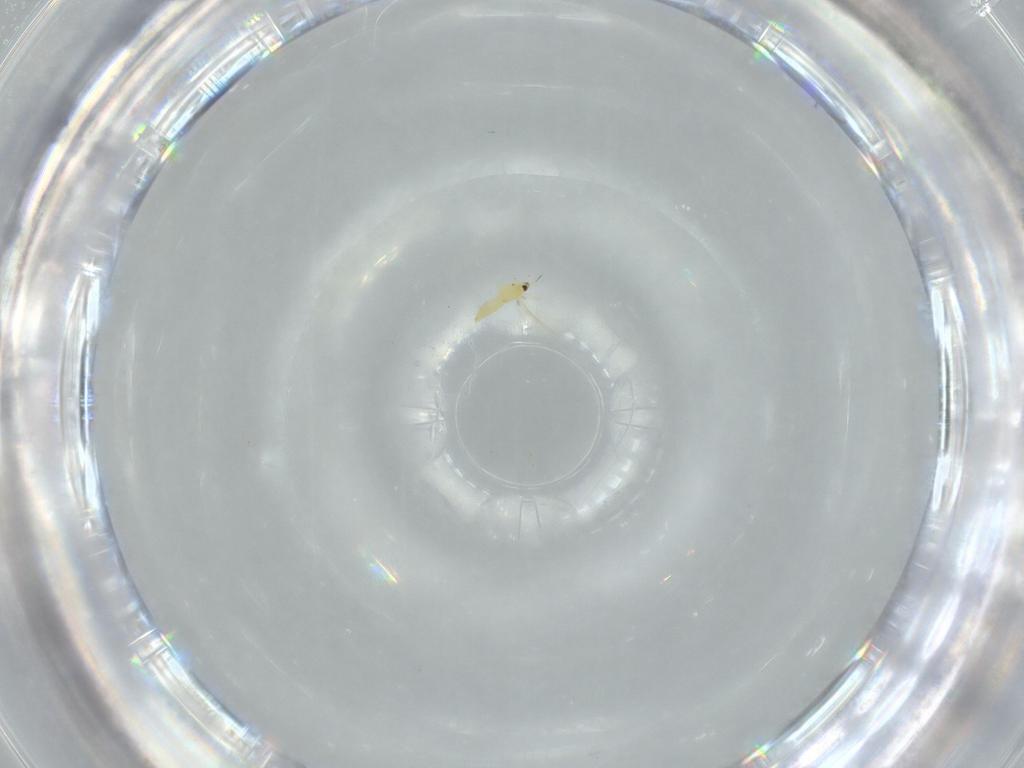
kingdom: Animalia
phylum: Arthropoda
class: Insecta
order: Thysanoptera
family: Thripidae
